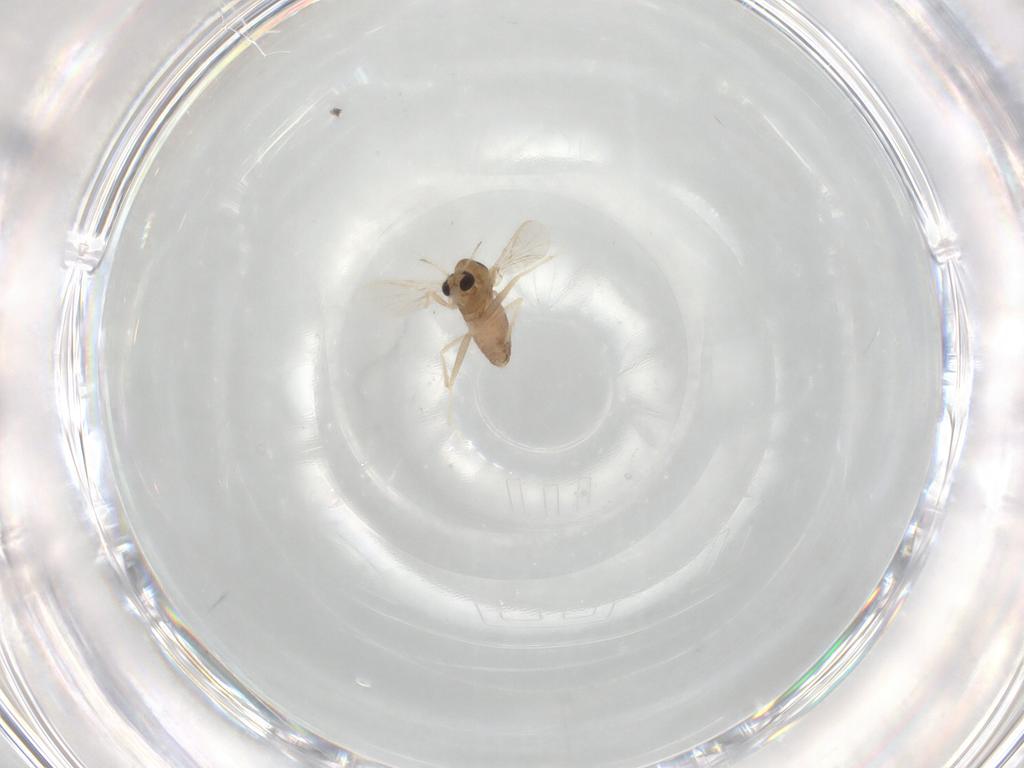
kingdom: Animalia
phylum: Arthropoda
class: Insecta
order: Diptera
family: Chironomidae
